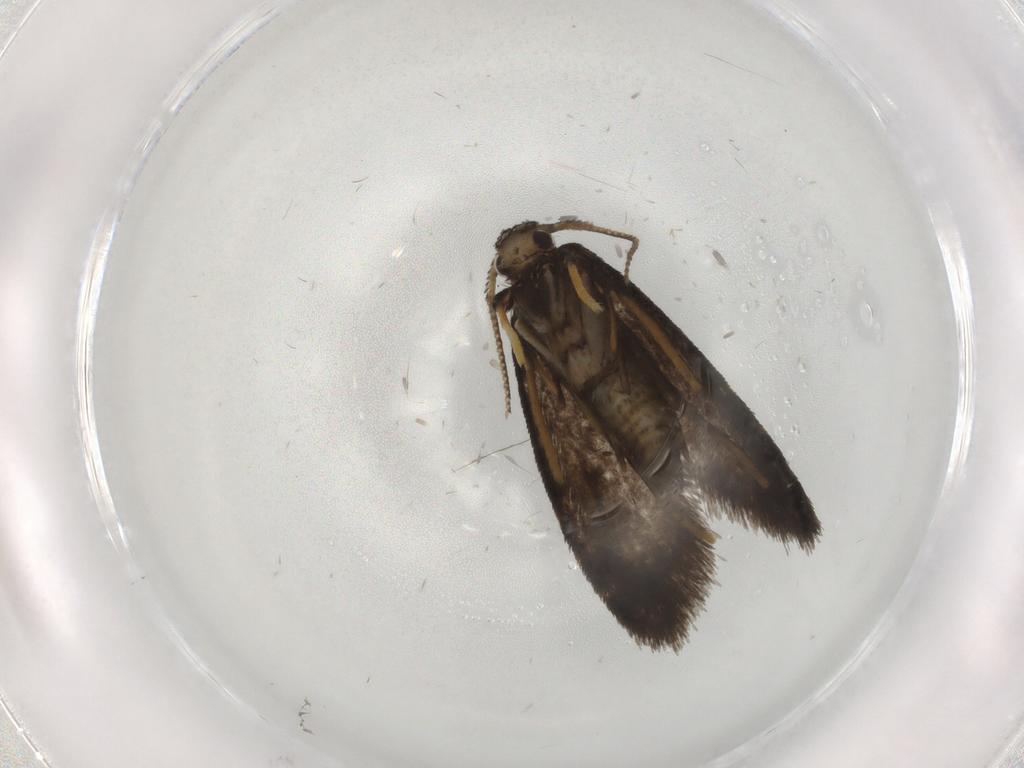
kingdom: Animalia
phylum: Arthropoda
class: Insecta
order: Lepidoptera
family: Psychidae
